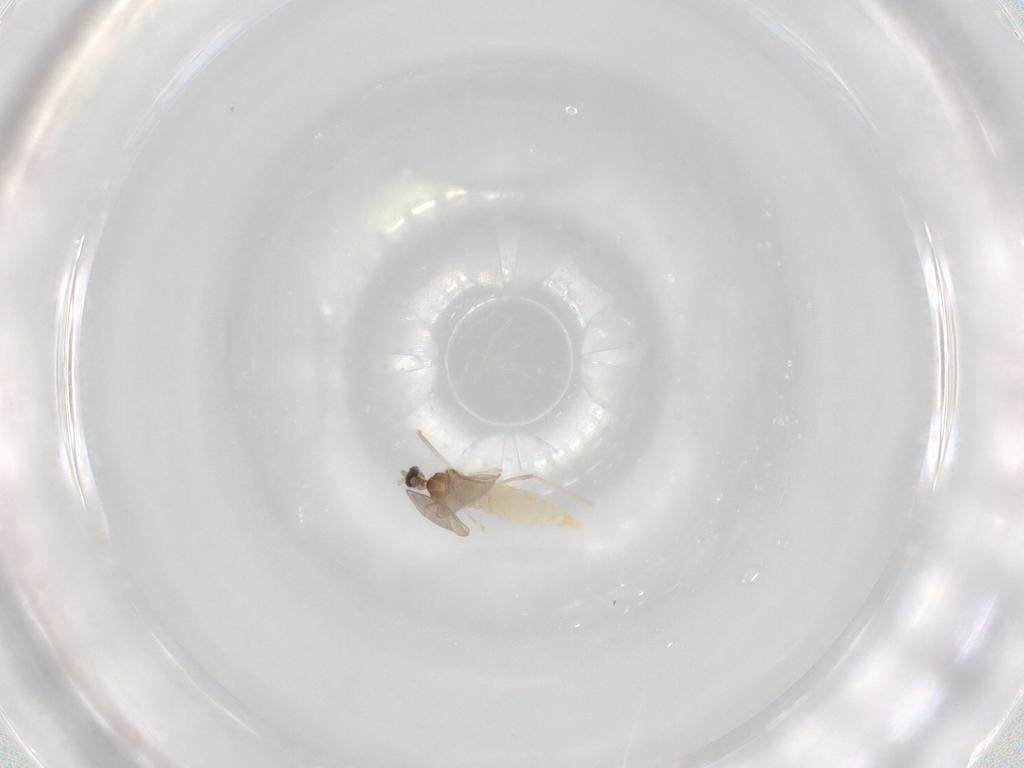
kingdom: Animalia
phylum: Arthropoda
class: Insecta
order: Diptera
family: Cecidomyiidae
